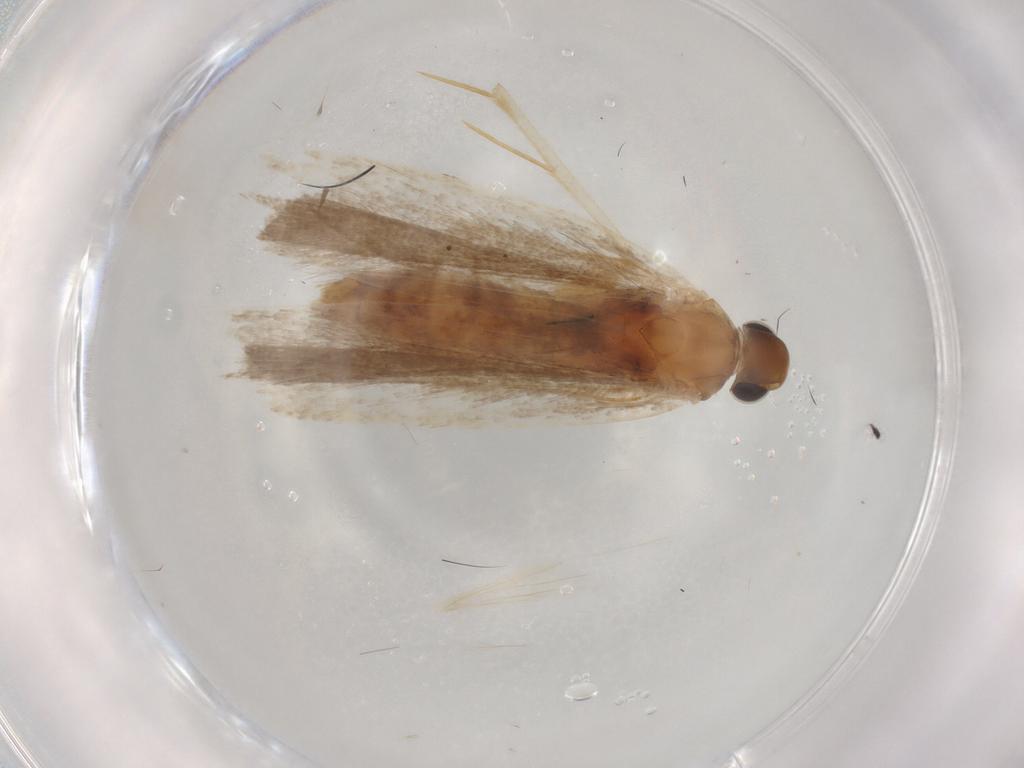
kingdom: Animalia
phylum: Arthropoda
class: Insecta
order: Lepidoptera
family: Gelechiidae
